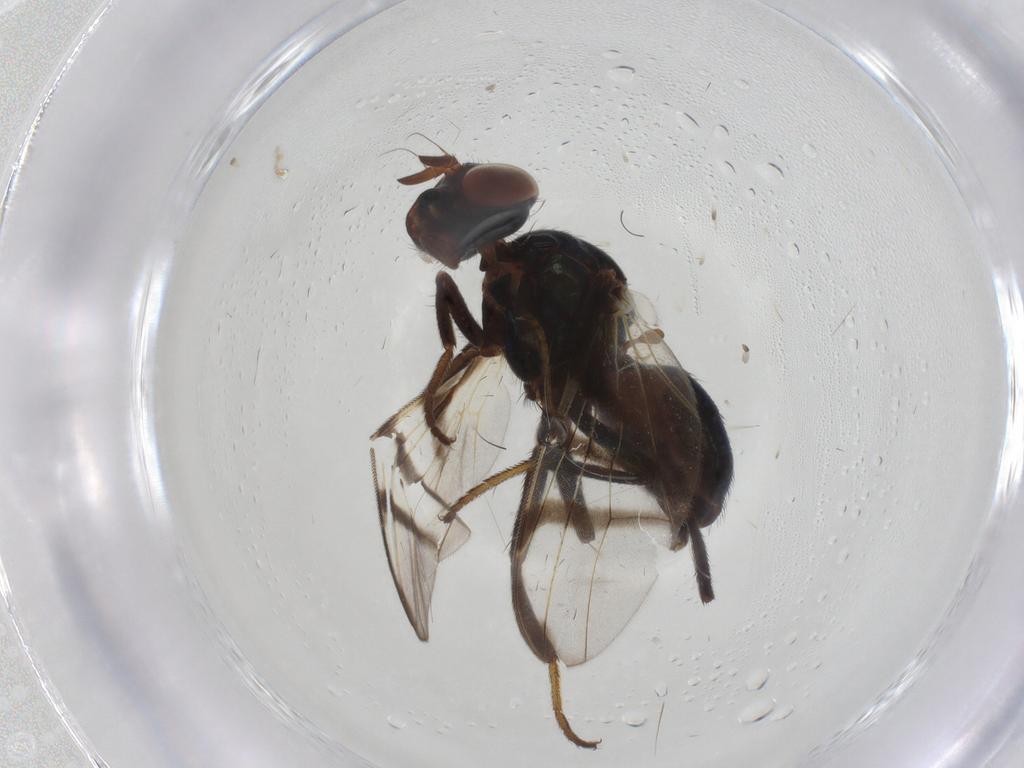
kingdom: Animalia
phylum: Arthropoda
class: Insecta
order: Diptera
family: Platystomatidae
